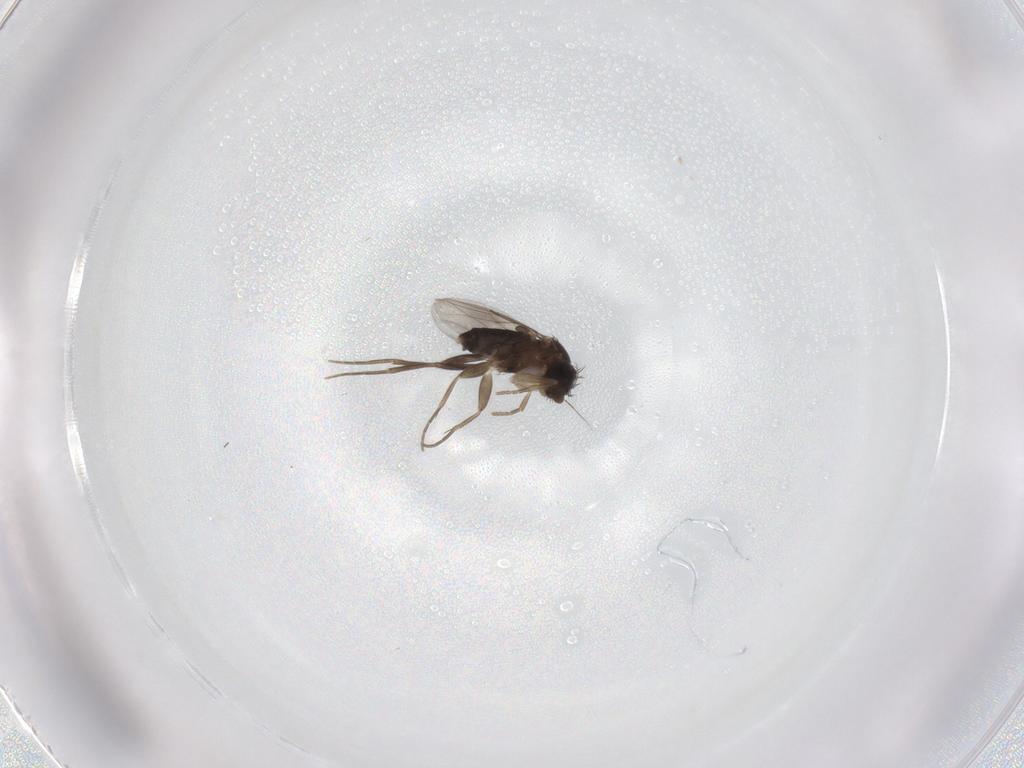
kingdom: Animalia
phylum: Arthropoda
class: Insecta
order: Diptera
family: Phoridae
